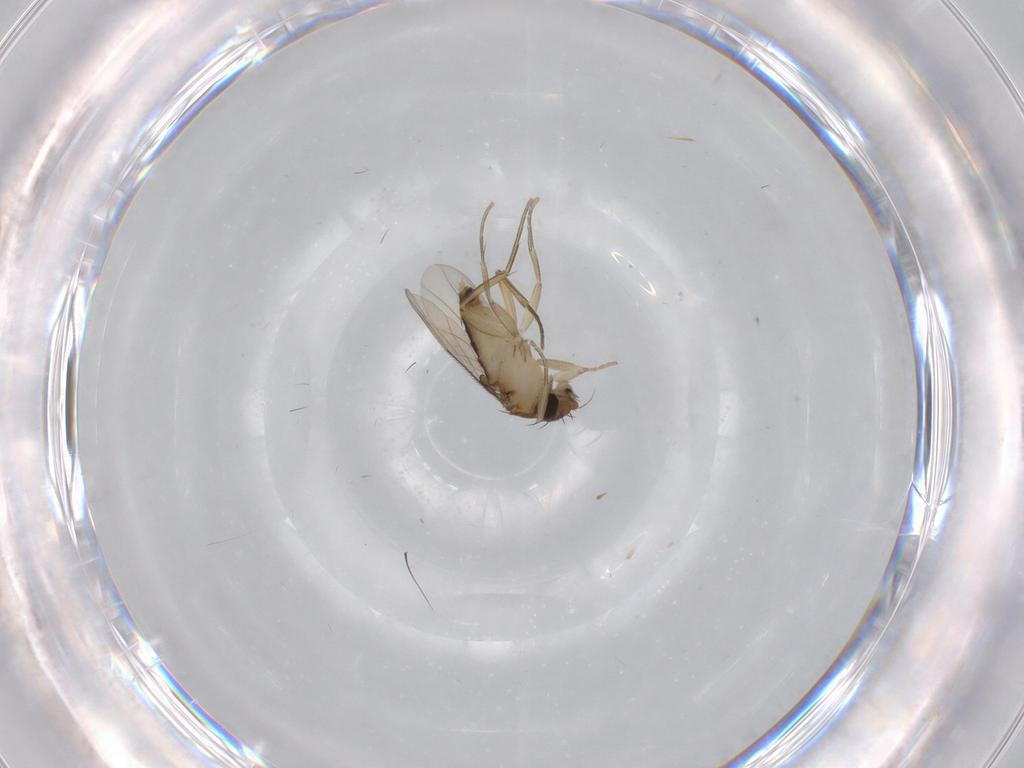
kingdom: Animalia
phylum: Arthropoda
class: Insecta
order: Diptera
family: Phoridae
